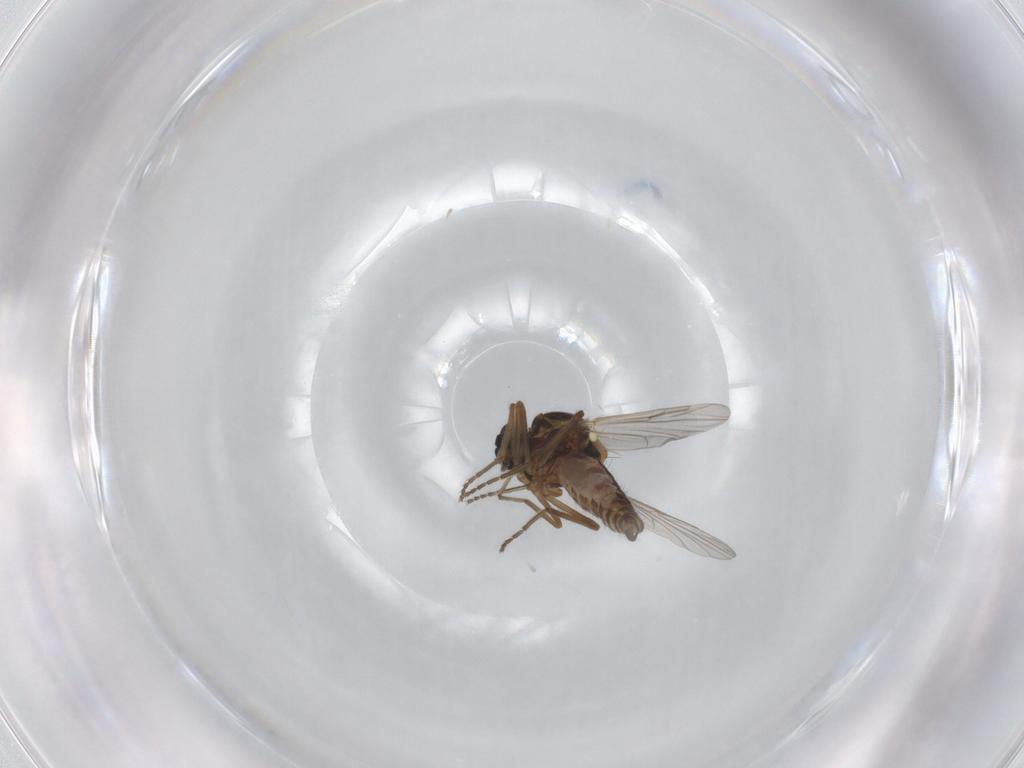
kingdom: Animalia
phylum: Arthropoda
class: Insecta
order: Diptera
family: Ceratopogonidae
